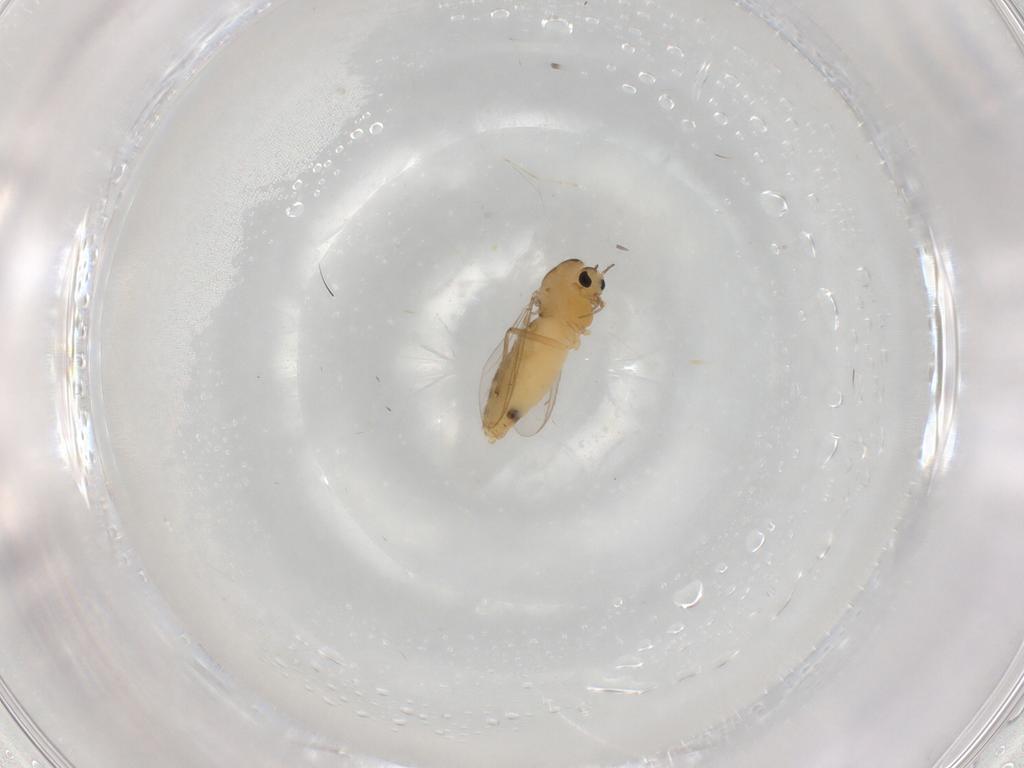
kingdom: Animalia
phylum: Arthropoda
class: Insecta
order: Diptera
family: Chironomidae
